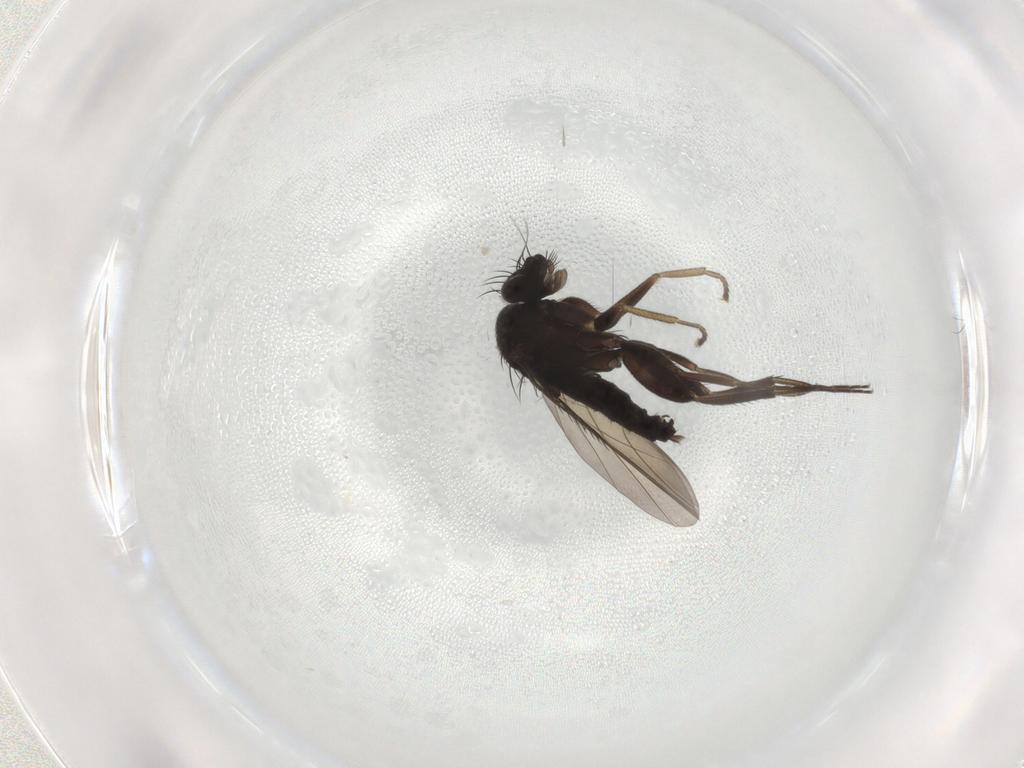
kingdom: Animalia
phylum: Arthropoda
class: Insecta
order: Diptera
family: Phoridae
